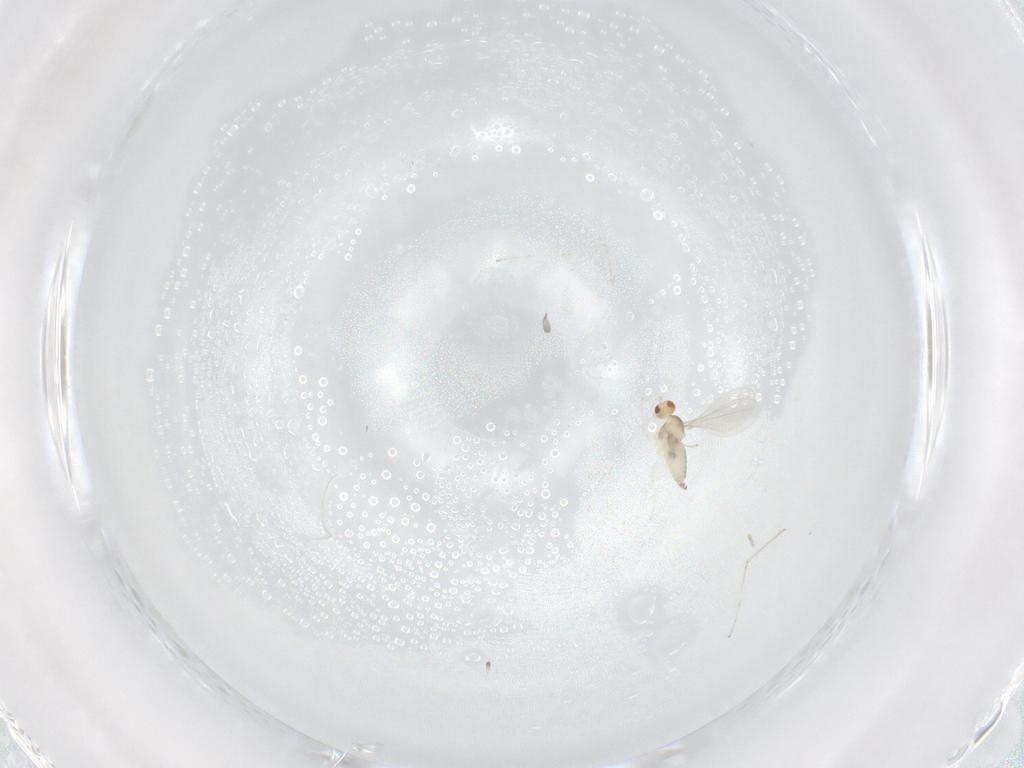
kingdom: Animalia
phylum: Arthropoda
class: Insecta
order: Diptera
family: Cecidomyiidae
